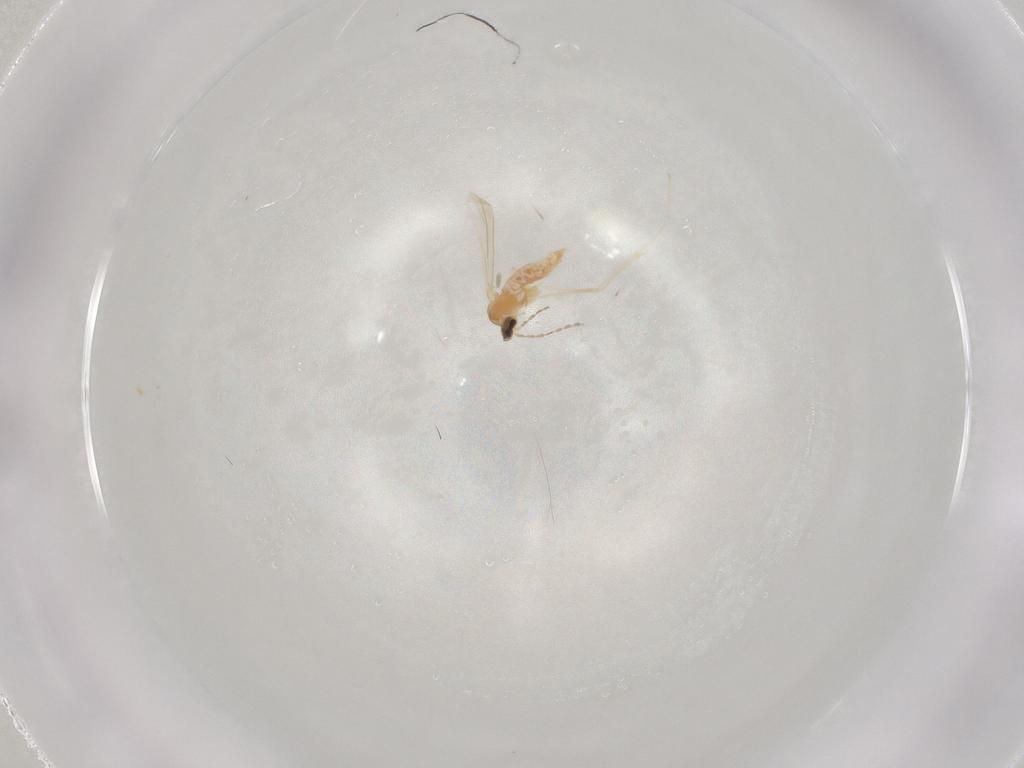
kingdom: Animalia
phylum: Arthropoda
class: Insecta
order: Diptera
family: Cecidomyiidae
